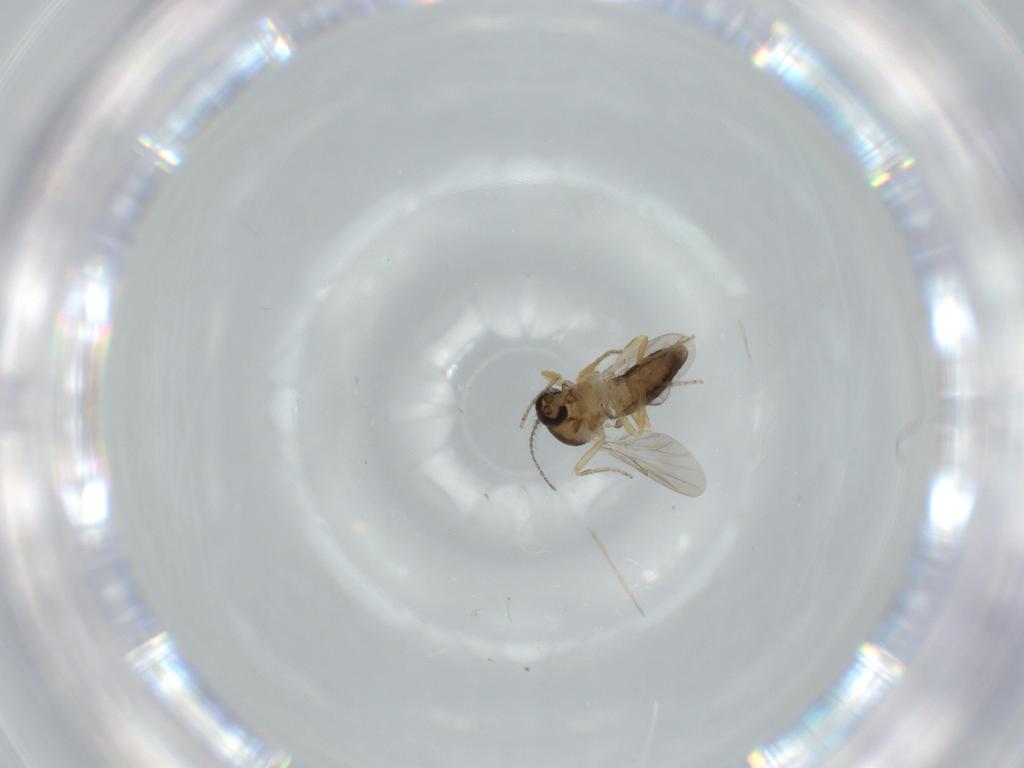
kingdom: Animalia
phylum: Arthropoda
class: Insecta
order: Diptera
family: Ceratopogonidae
